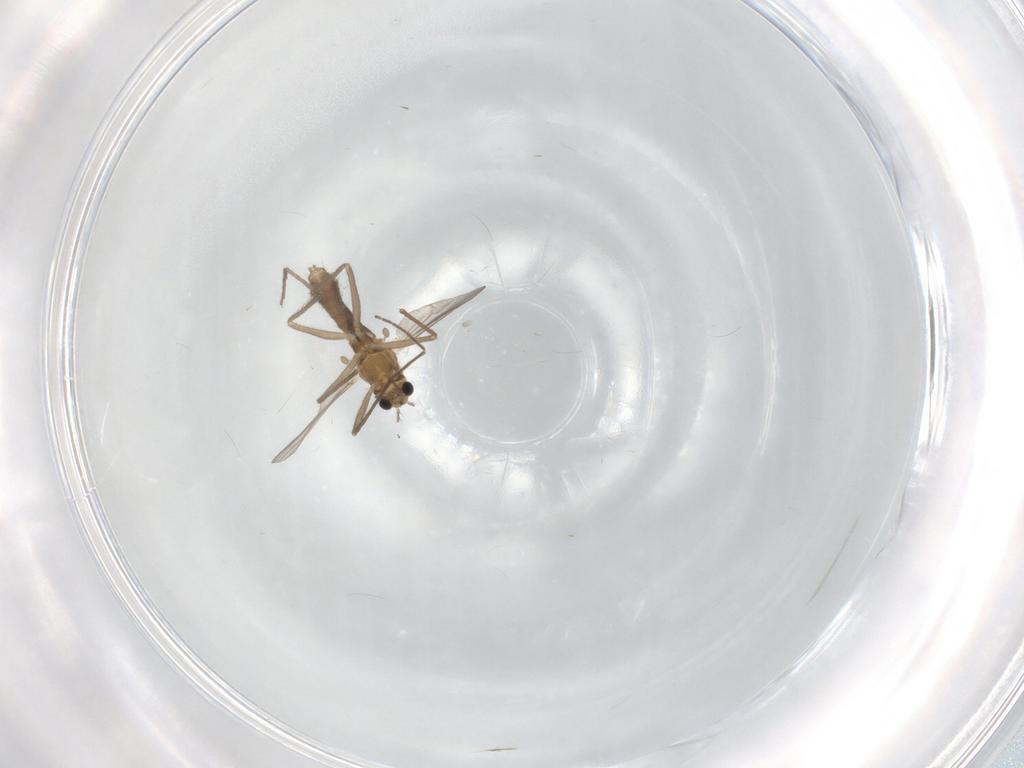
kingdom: Animalia
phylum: Arthropoda
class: Insecta
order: Diptera
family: Chironomidae
